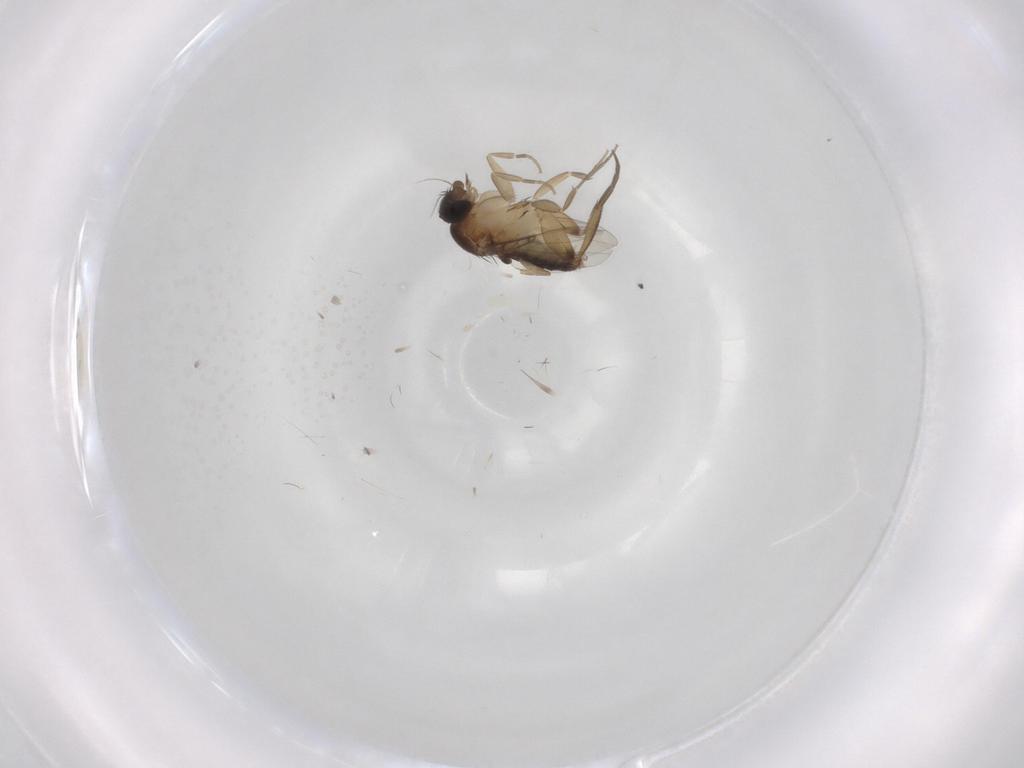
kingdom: Animalia
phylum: Arthropoda
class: Insecta
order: Diptera
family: Phoridae
